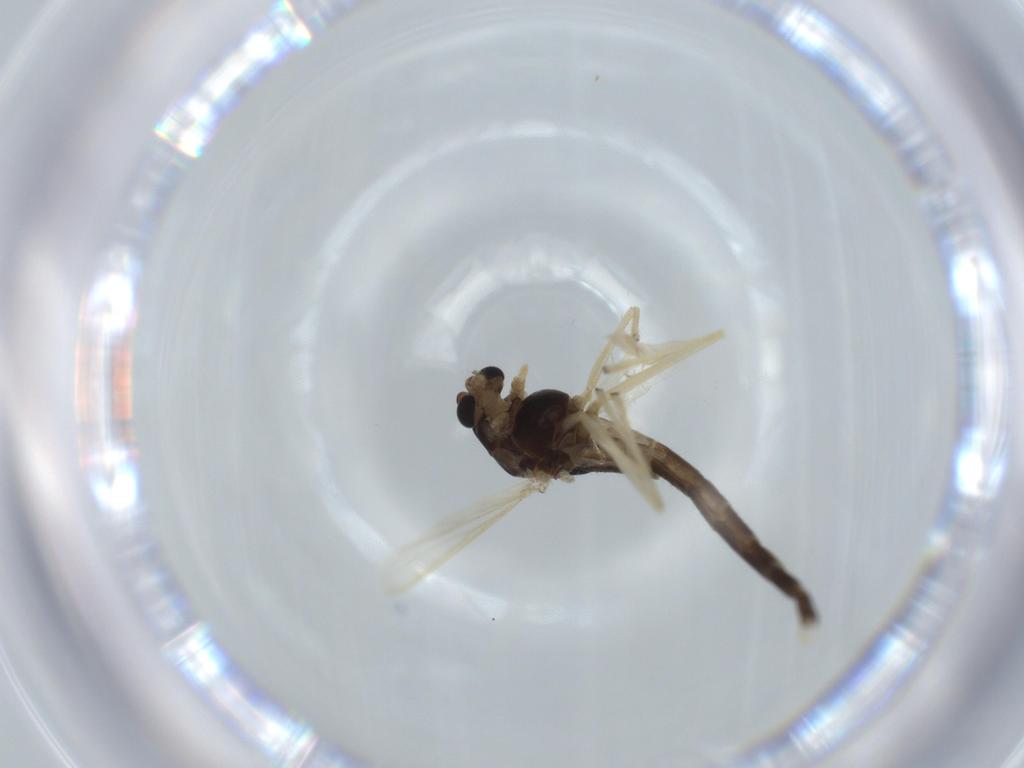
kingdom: Animalia
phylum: Arthropoda
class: Insecta
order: Diptera
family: Chironomidae
